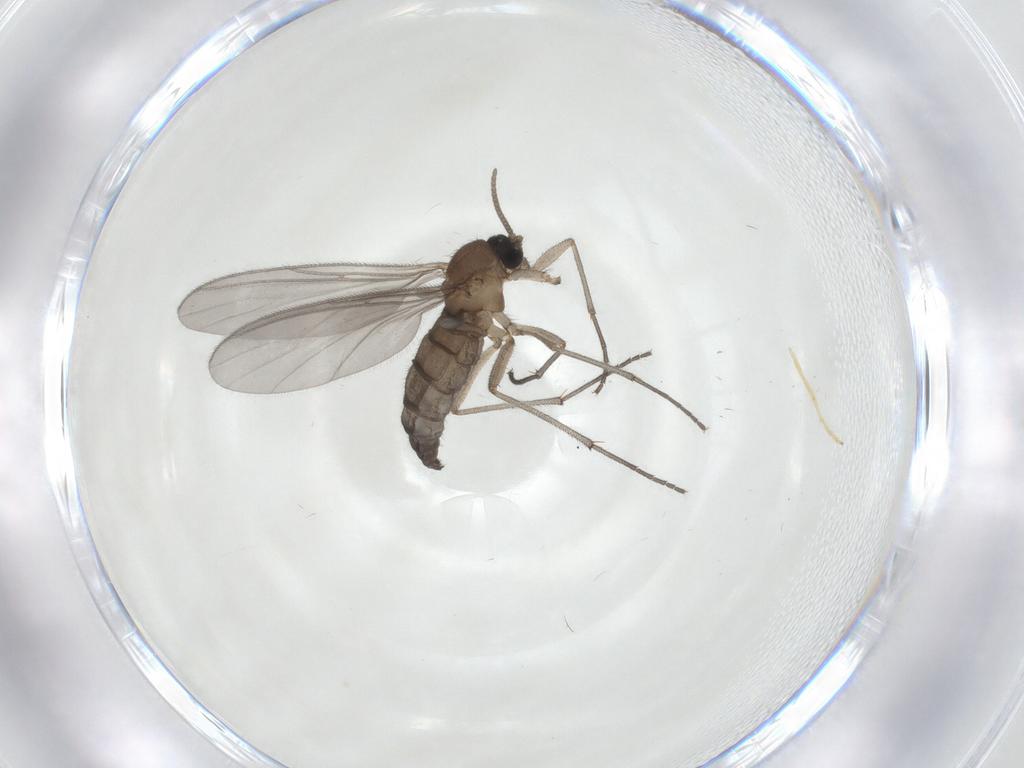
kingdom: Animalia
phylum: Arthropoda
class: Insecta
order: Diptera
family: Chironomidae
